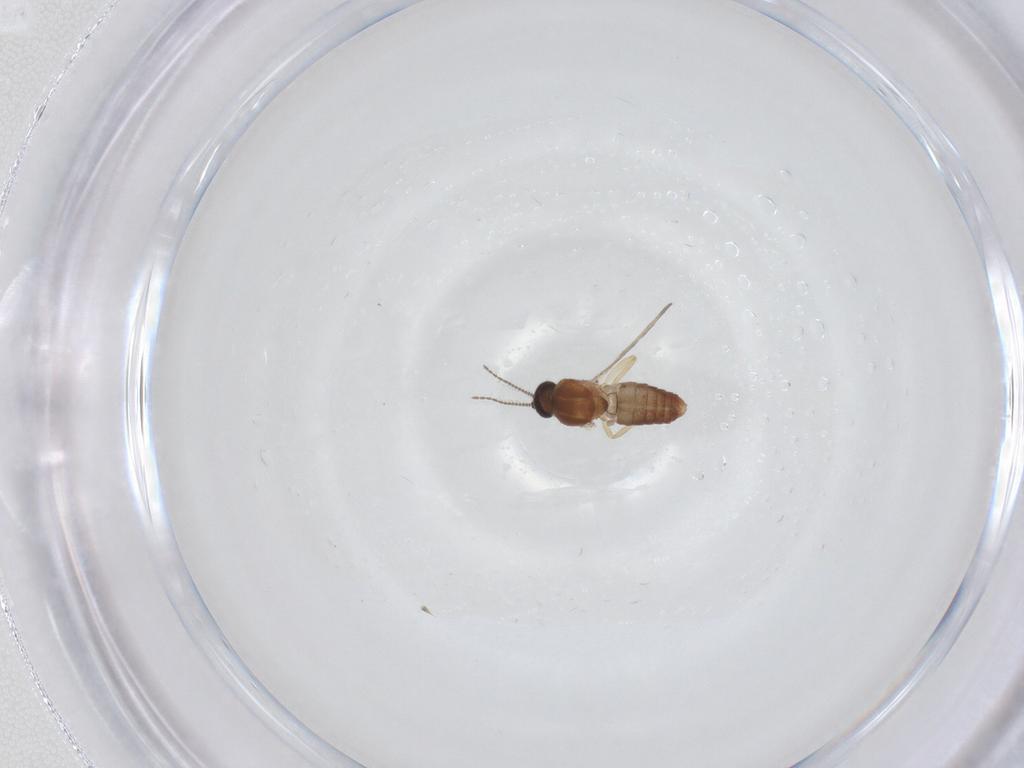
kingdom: Animalia
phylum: Arthropoda
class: Insecta
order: Diptera
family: Ceratopogonidae
